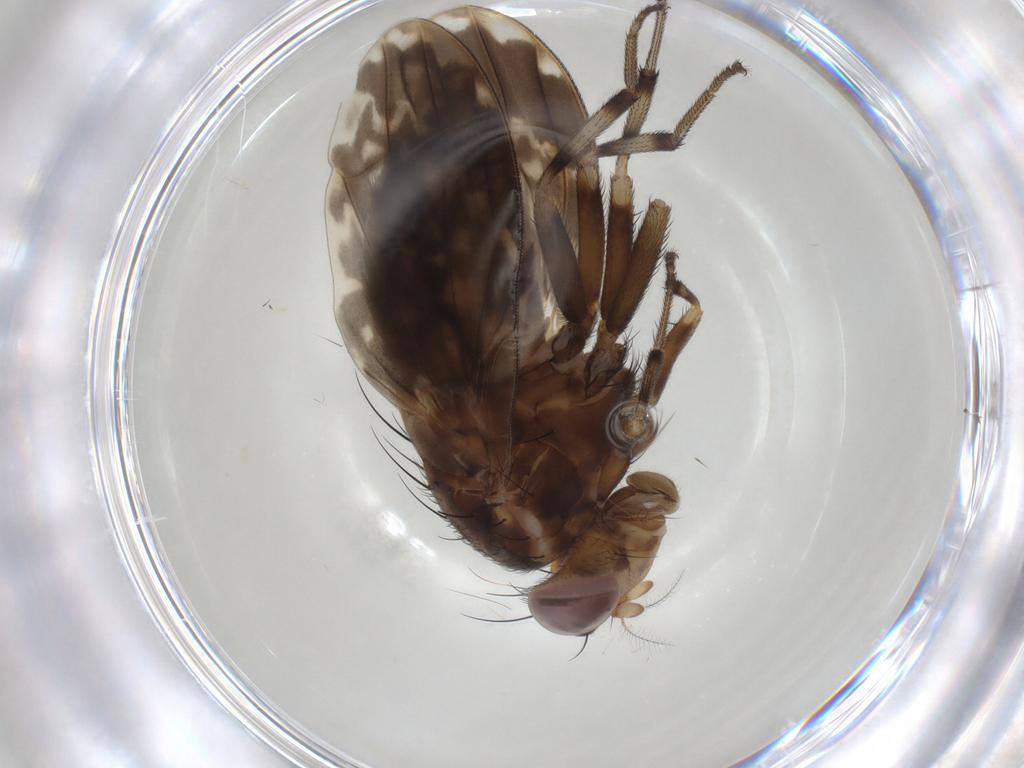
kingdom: Animalia
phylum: Arthropoda
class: Insecta
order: Diptera
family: Lauxaniidae
